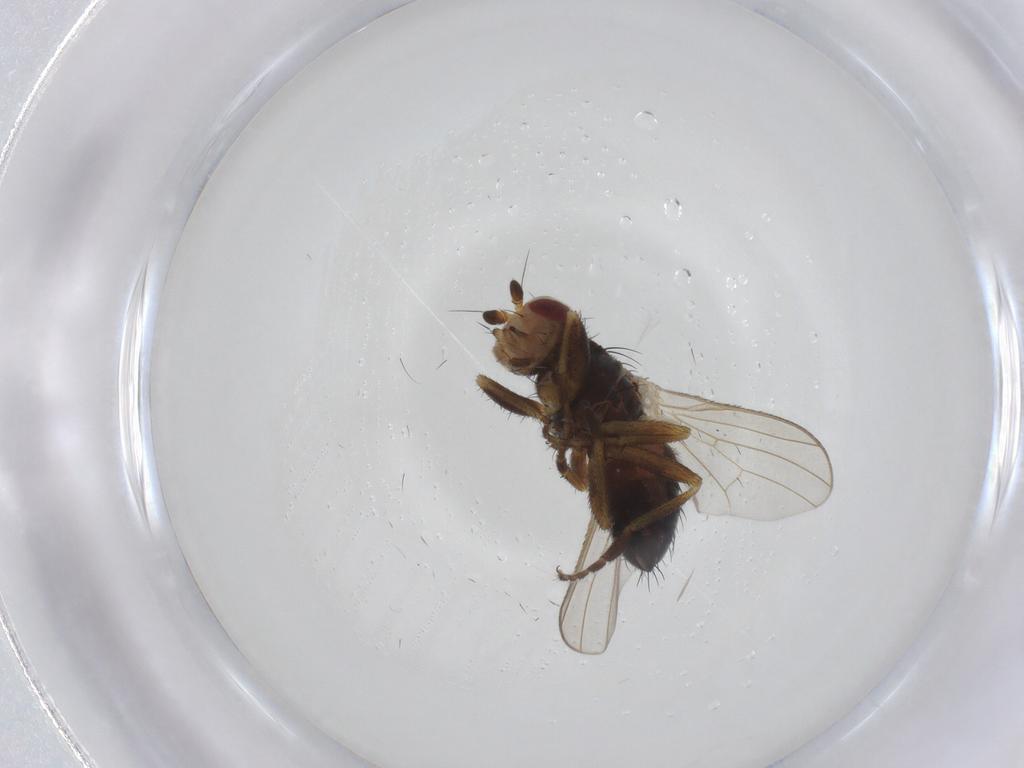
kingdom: Animalia
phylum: Arthropoda
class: Insecta
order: Diptera
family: Heleomyzidae
